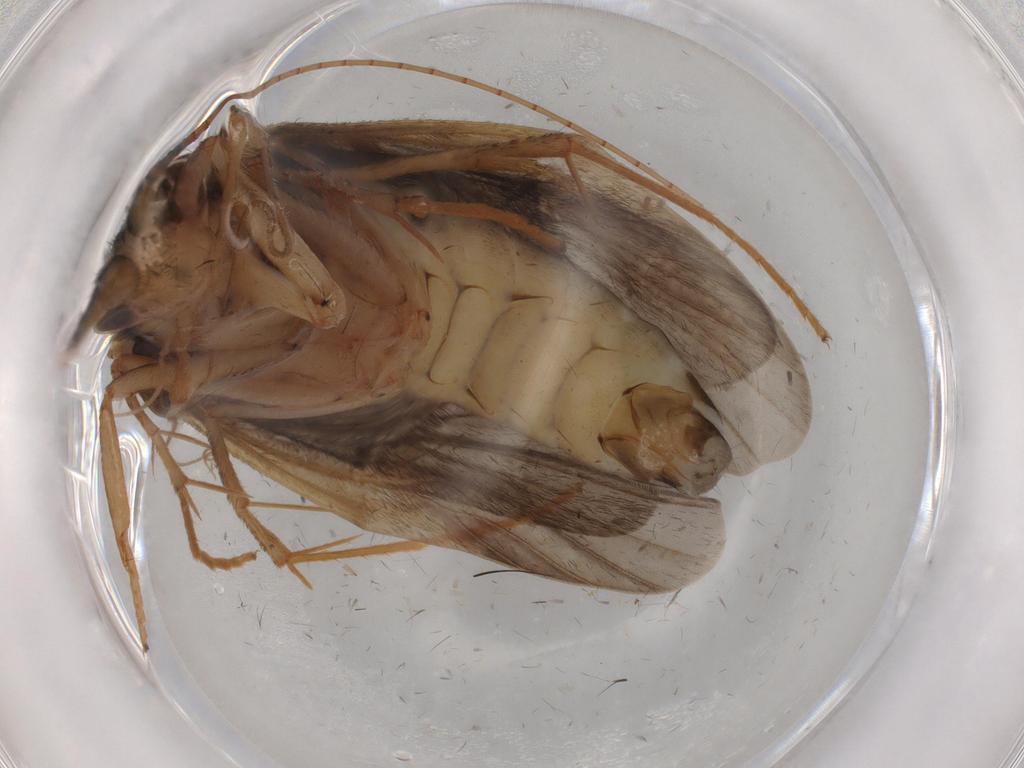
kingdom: Animalia
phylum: Arthropoda
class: Insecta
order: Trichoptera
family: Hydropsychidae
